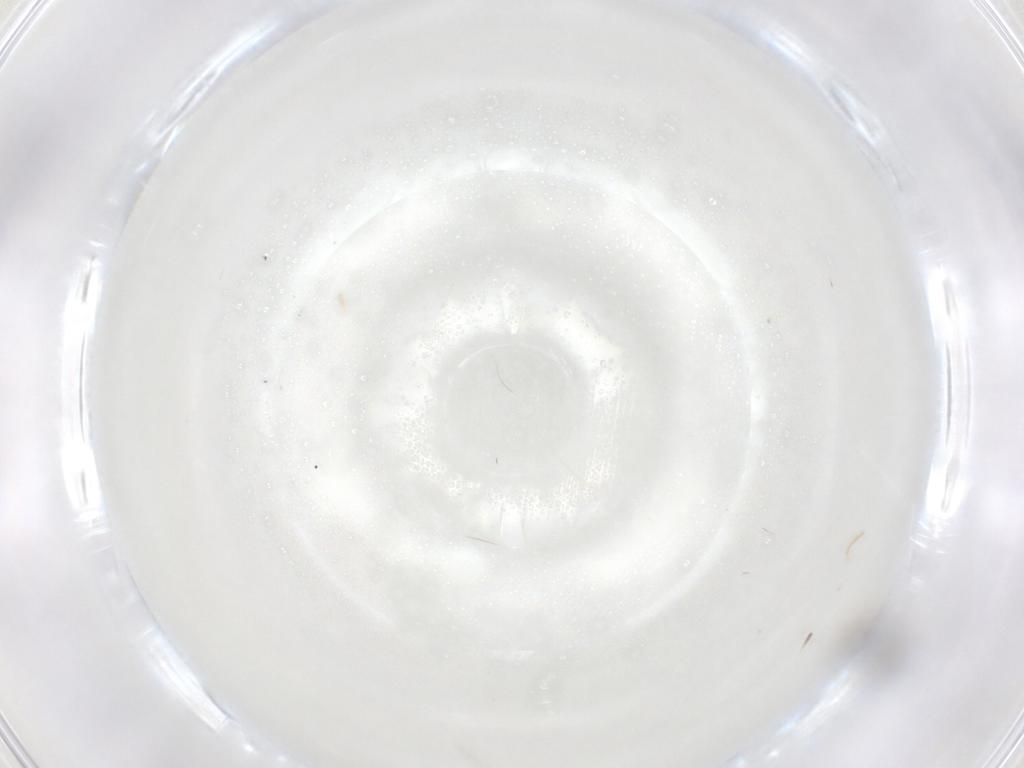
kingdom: Animalia
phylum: Arthropoda
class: Insecta
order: Diptera
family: Chironomidae
